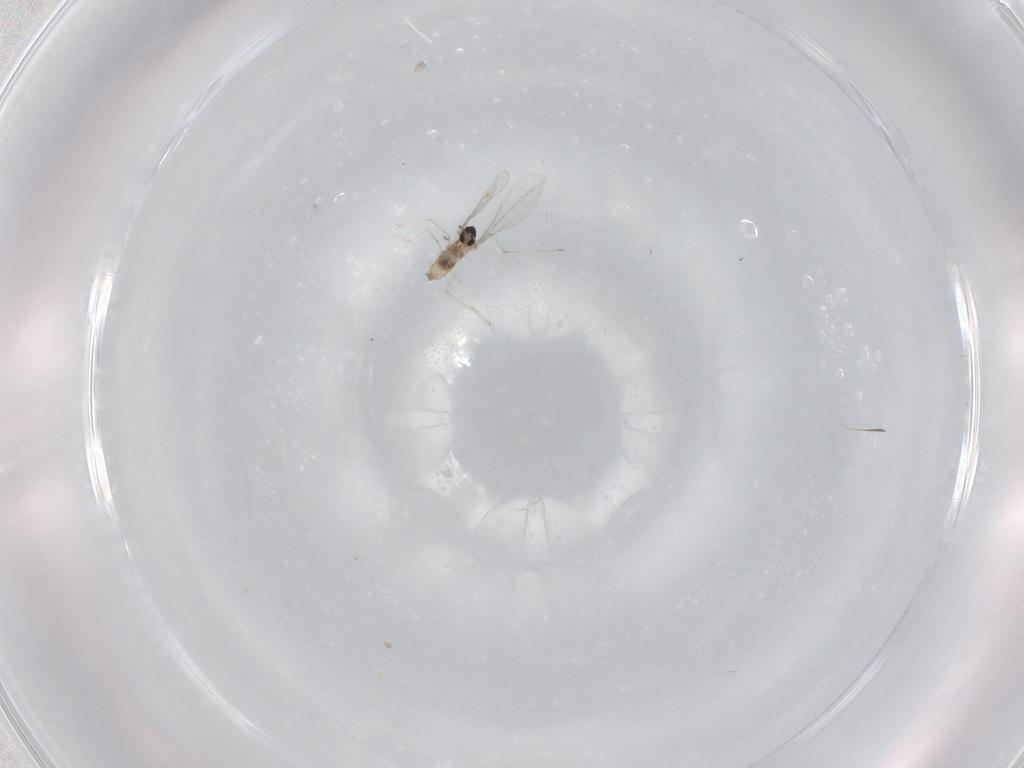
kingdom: Animalia
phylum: Arthropoda
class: Insecta
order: Diptera
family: Cecidomyiidae
